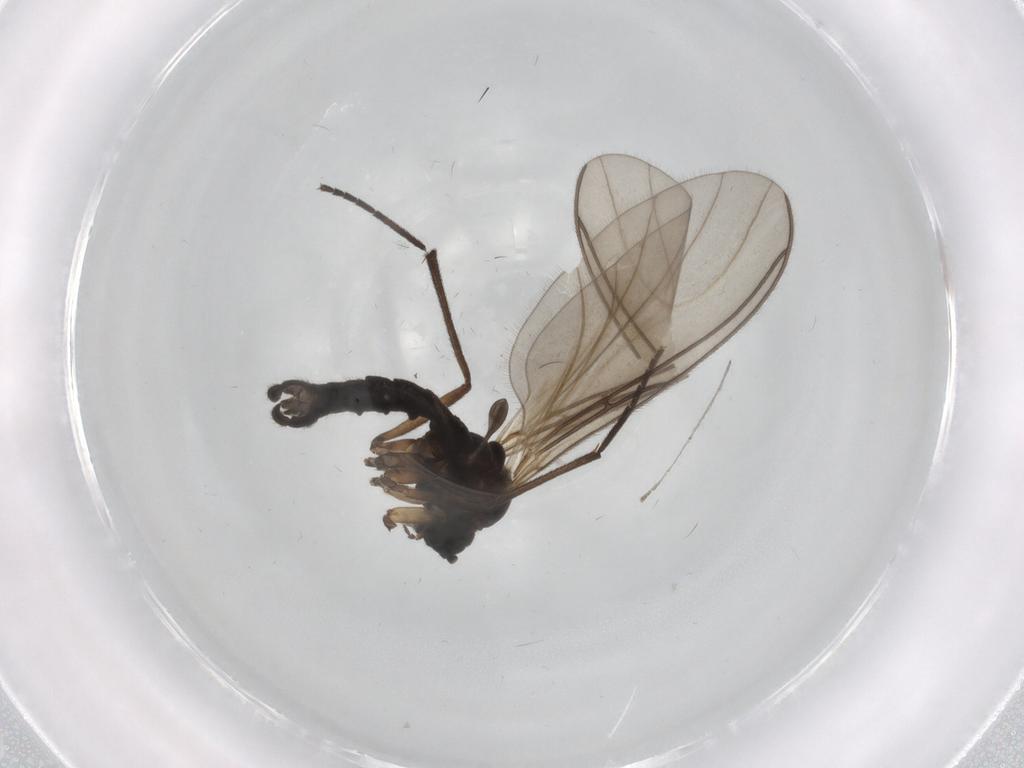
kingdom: Animalia
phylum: Arthropoda
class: Insecta
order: Diptera
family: Sciaridae
